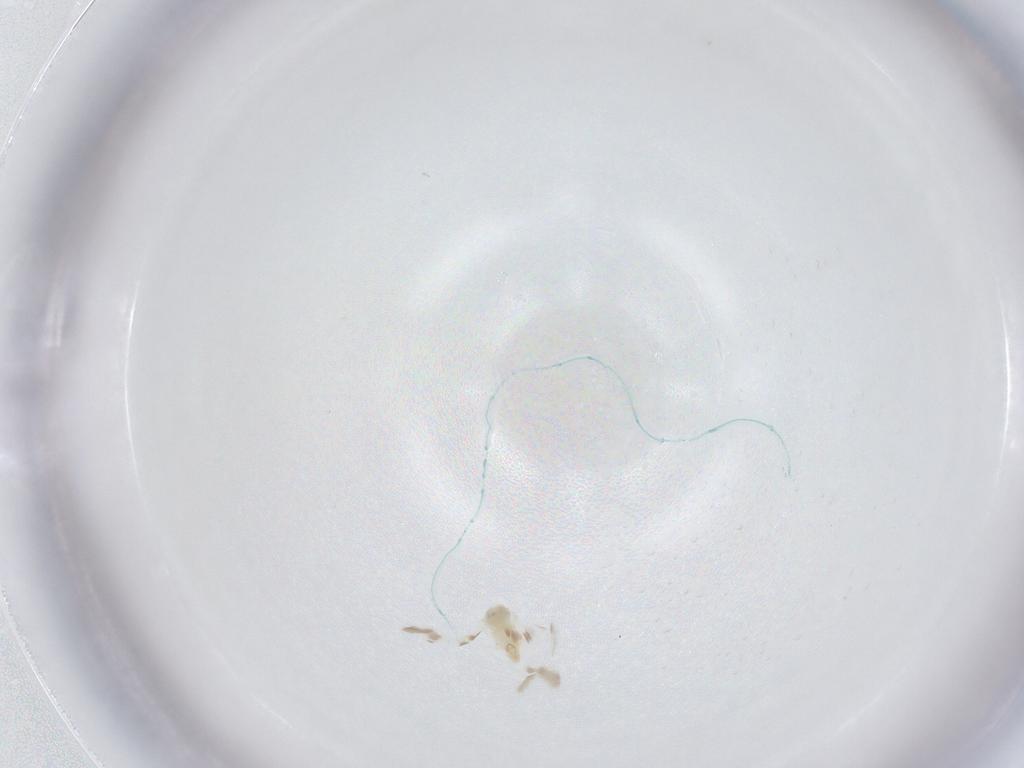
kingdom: Animalia
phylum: Arthropoda
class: Insecta
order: Hemiptera
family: Aleyrodidae
